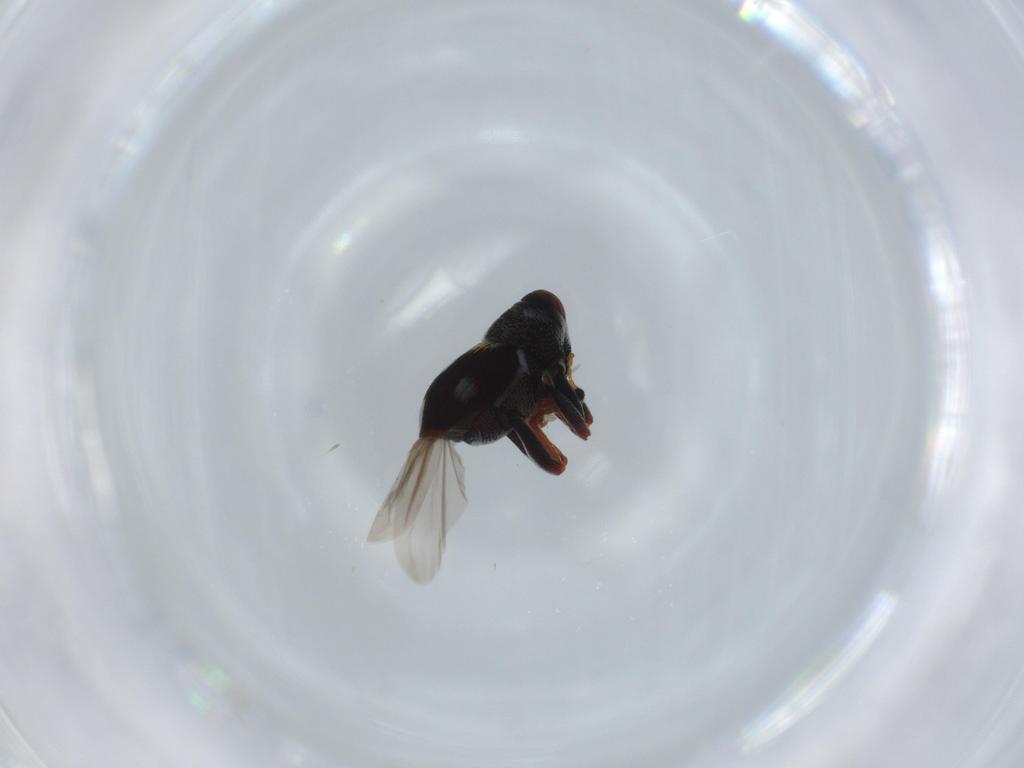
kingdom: Animalia
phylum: Arthropoda
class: Insecta
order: Coleoptera
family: Curculionidae
